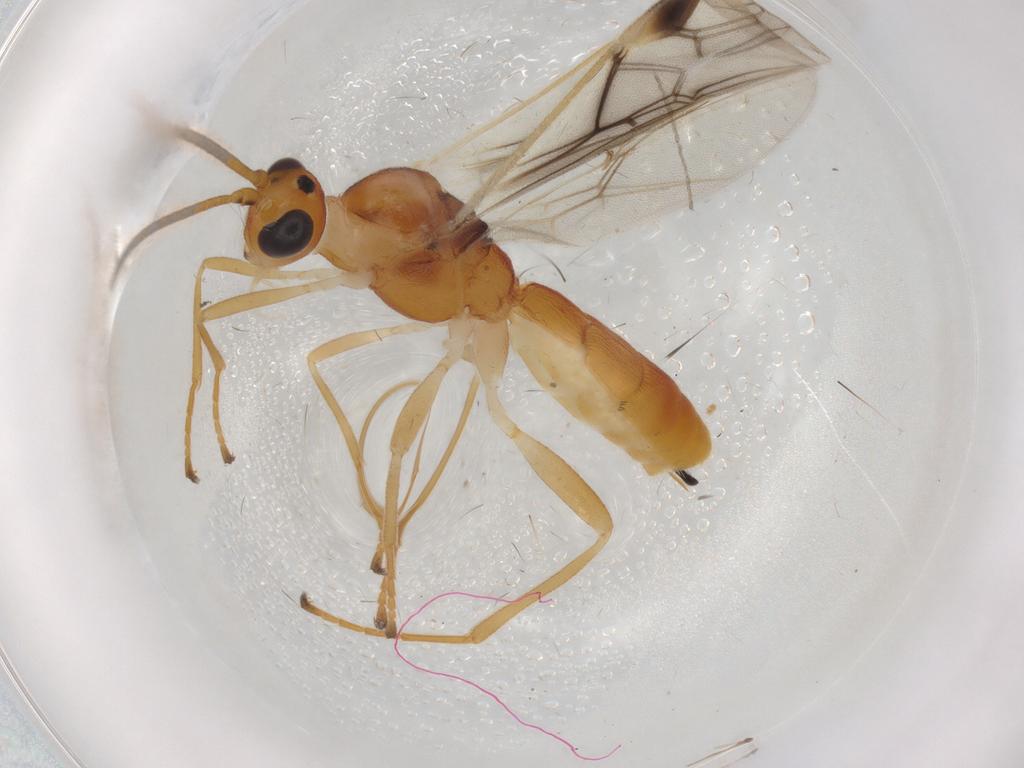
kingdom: Animalia
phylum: Arthropoda
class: Insecta
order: Hymenoptera
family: Braconidae
